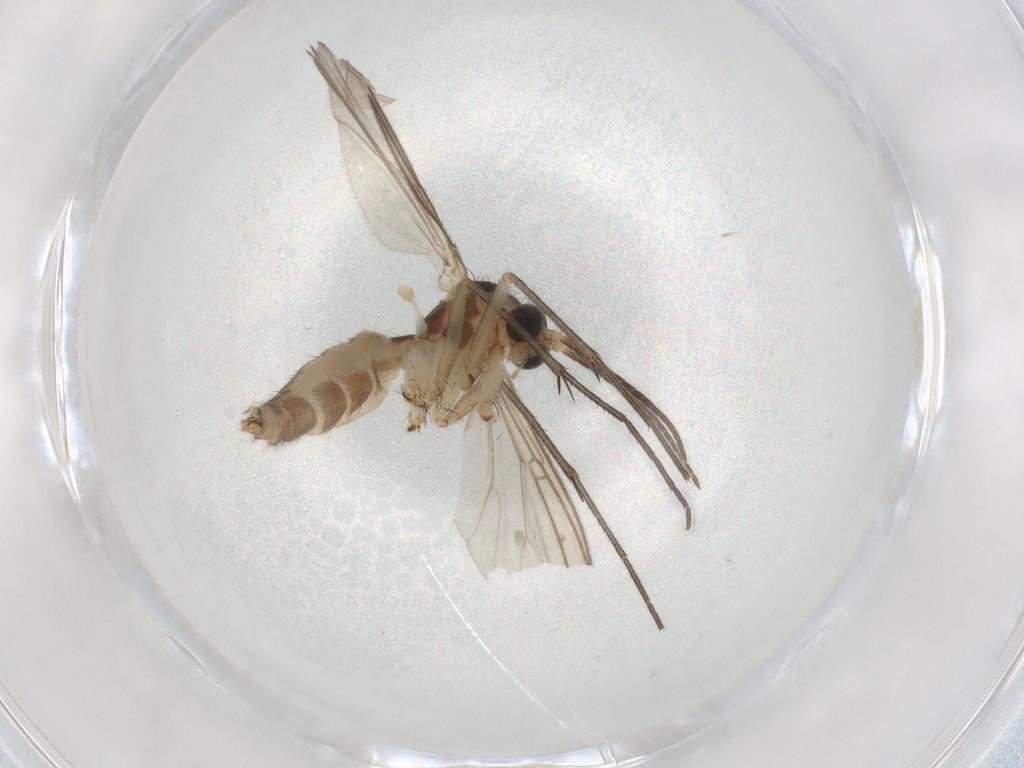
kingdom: Animalia
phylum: Arthropoda
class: Insecta
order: Diptera
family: Mycetophilidae
